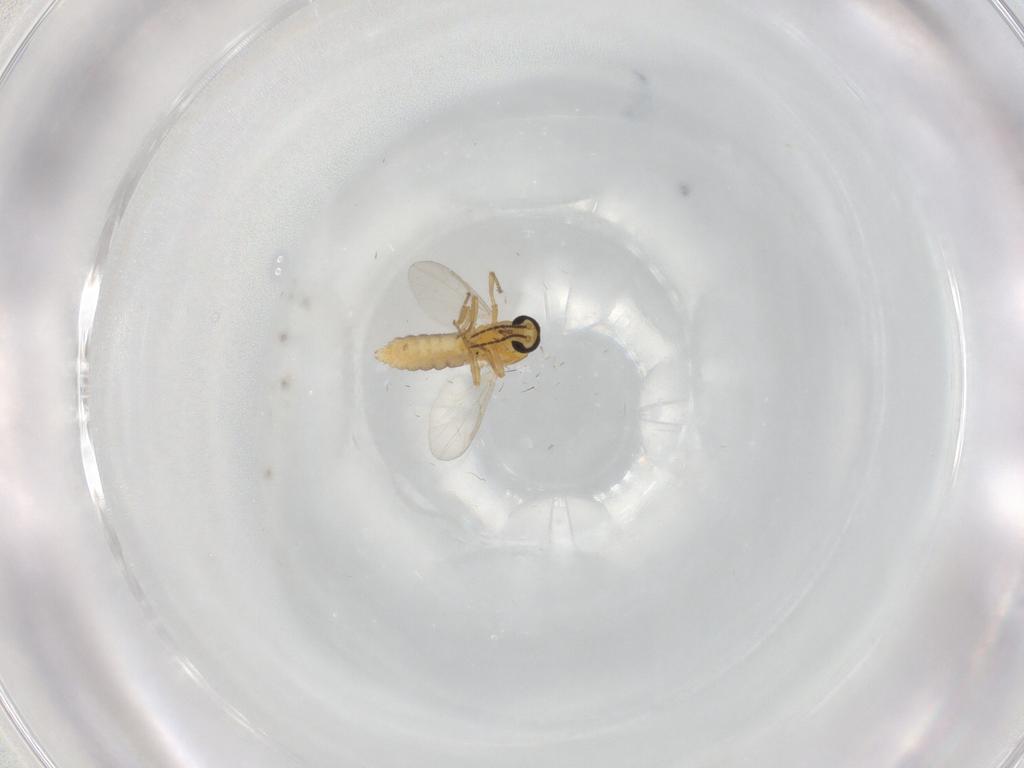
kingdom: Animalia
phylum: Arthropoda
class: Insecta
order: Diptera
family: Ceratopogonidae
